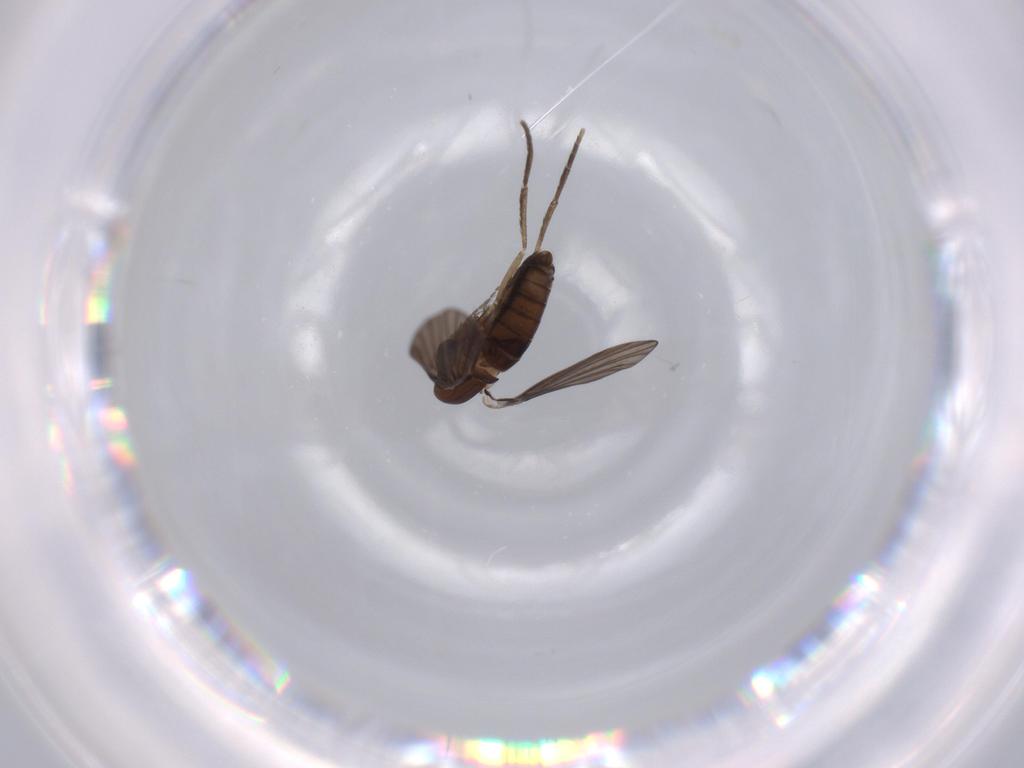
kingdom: Animalia
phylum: Arthropoda
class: Insecta
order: Diptera
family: Psychodidae
